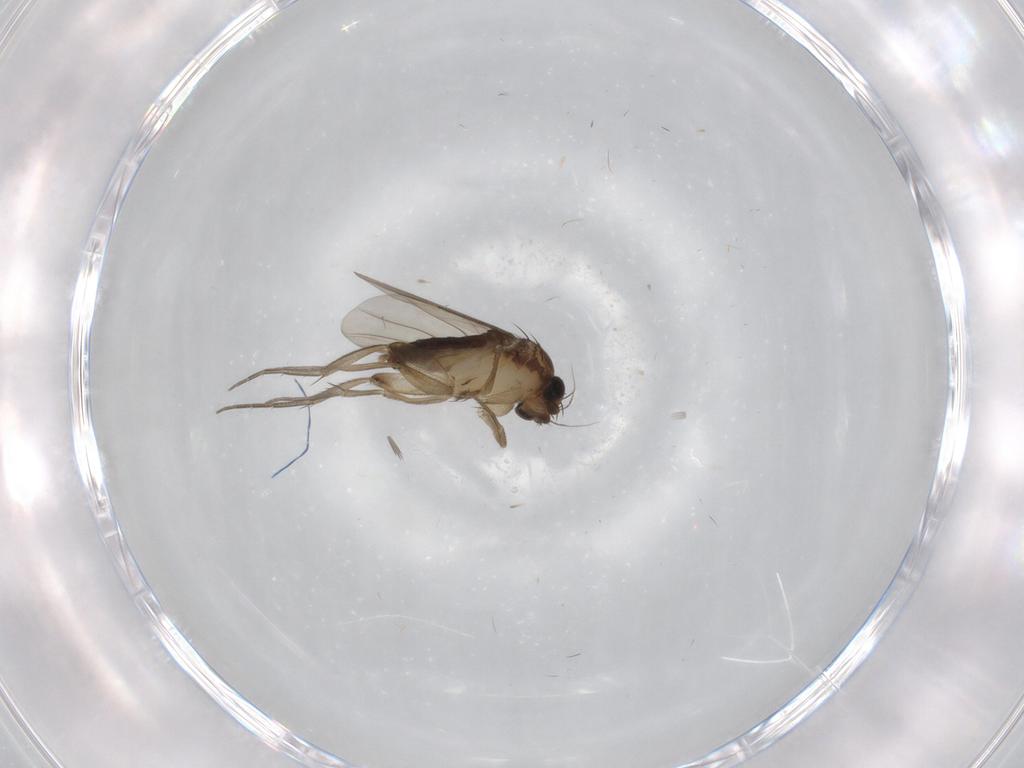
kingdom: Animalia
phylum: Arthropoda
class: Insecta
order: Diptera
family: Phoridae
